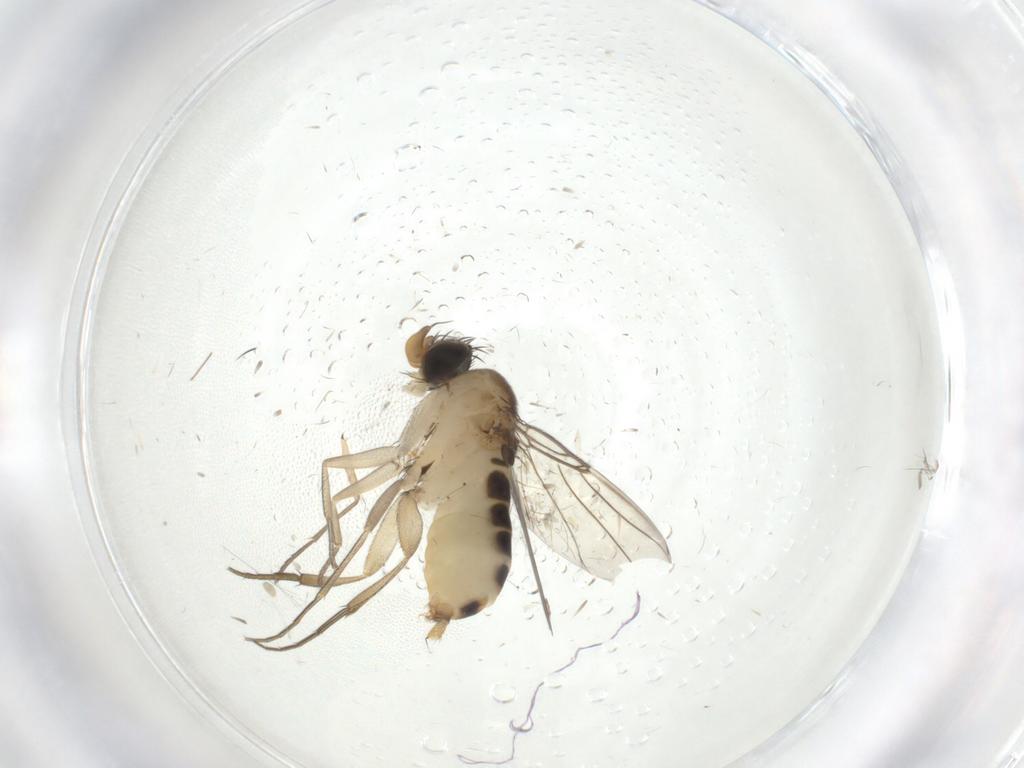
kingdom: Animalia
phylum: Arthropoda
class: Insecta
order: Diptera
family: Phoridae
